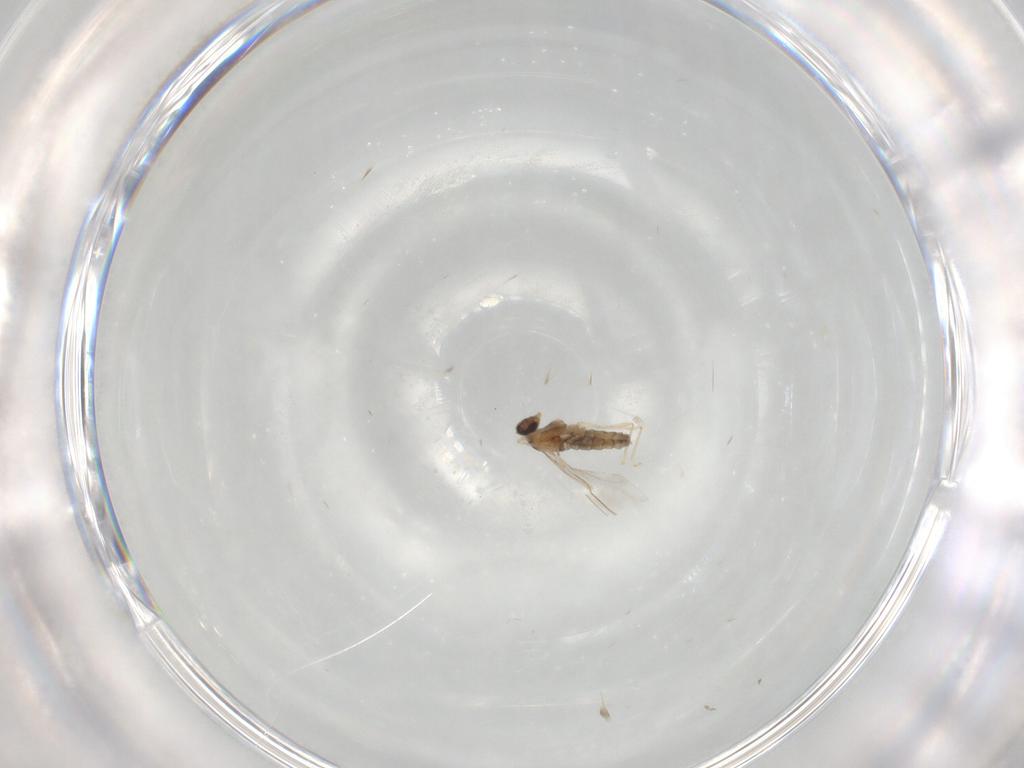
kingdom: Animalia
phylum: Arthropoda
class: Insecta
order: Diptera
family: Cecidomyiidae
